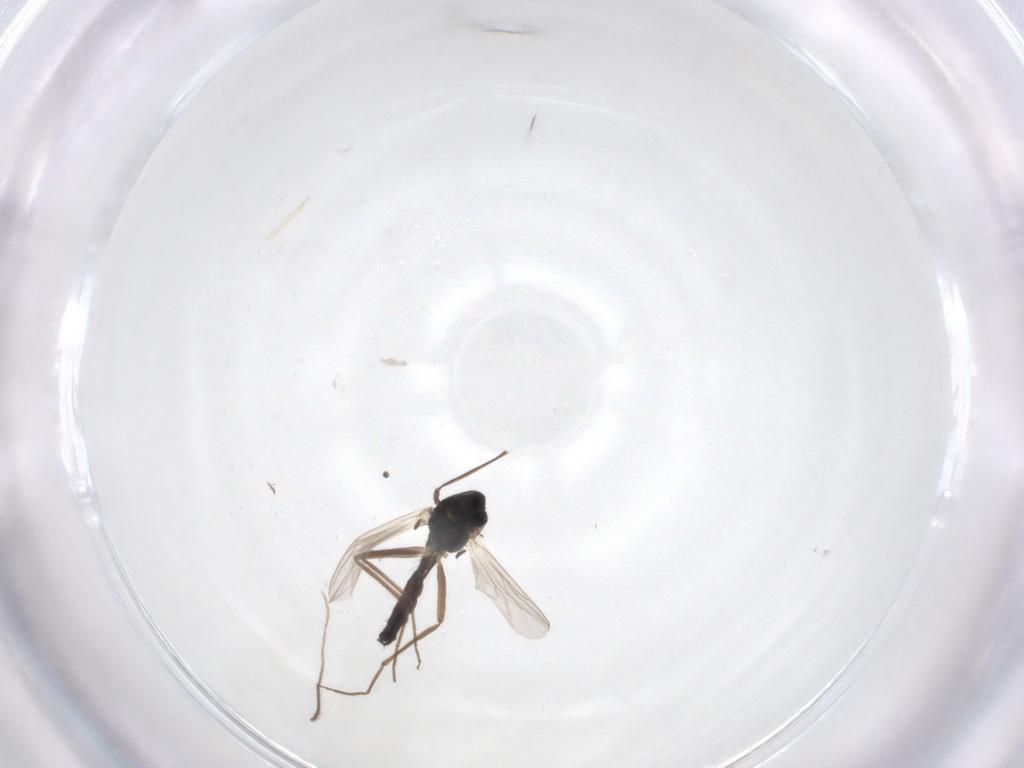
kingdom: Animalia
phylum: Arthropoda
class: Insecta
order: Diptera
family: Chironomidae
